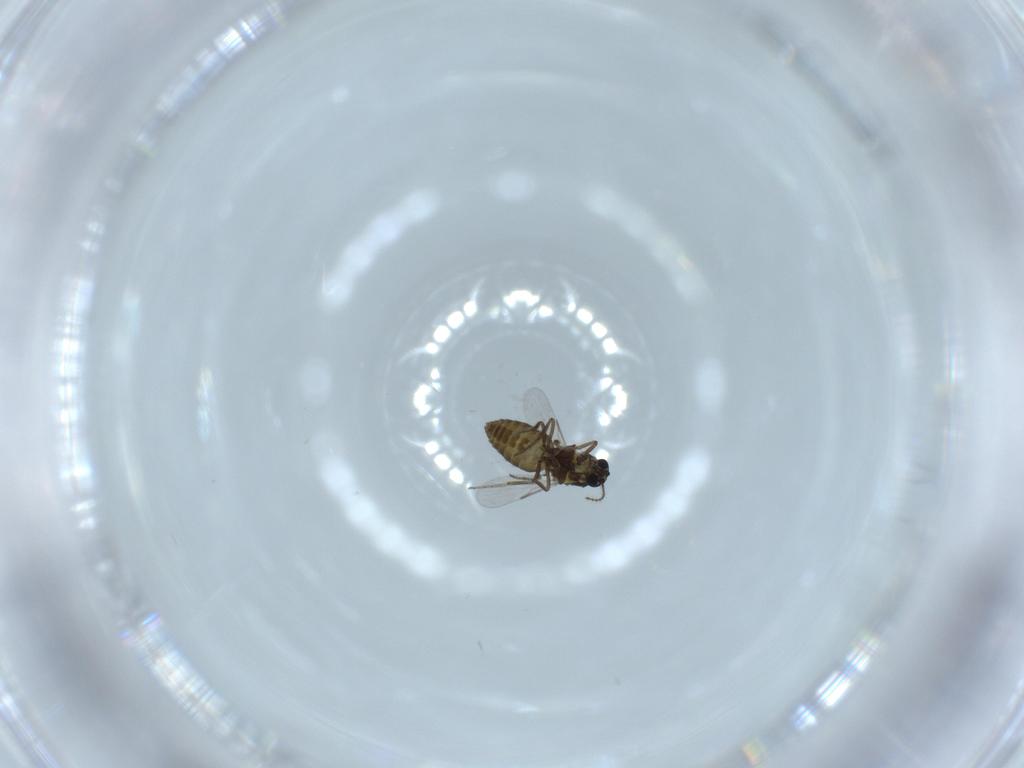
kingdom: Animalia
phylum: Arthropoda
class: Insecta
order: Diptera
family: Ceratopogonidae
